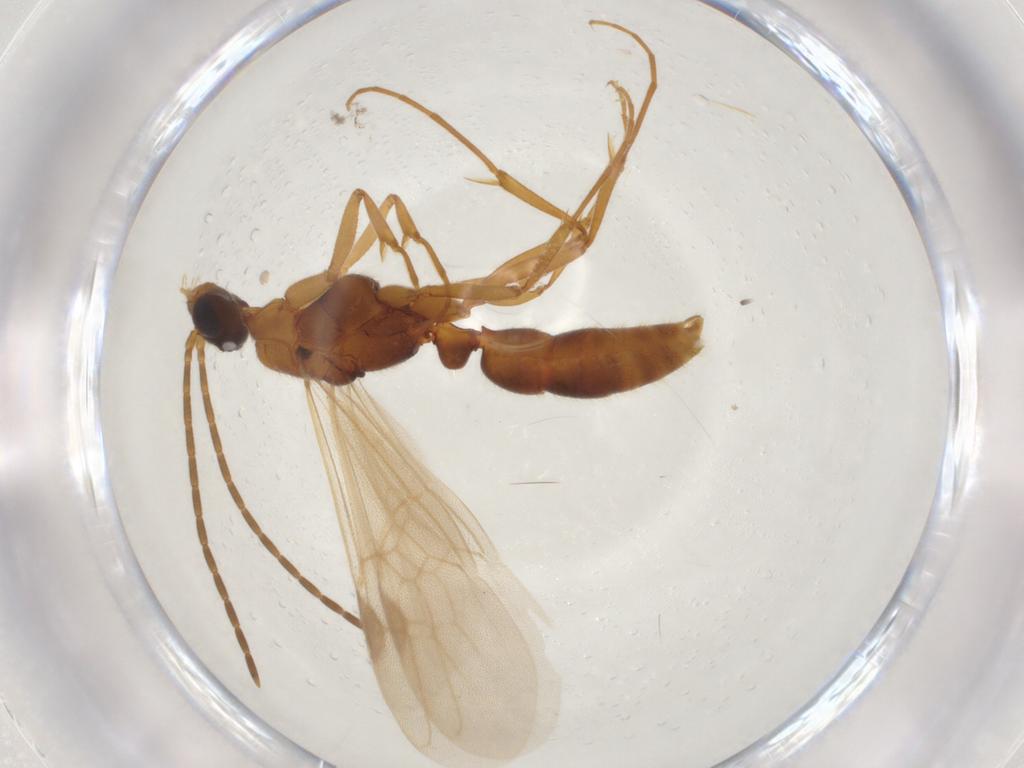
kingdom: Animalia
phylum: Arthropoda
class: Insecta
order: Hymenoptera
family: Formicidae
